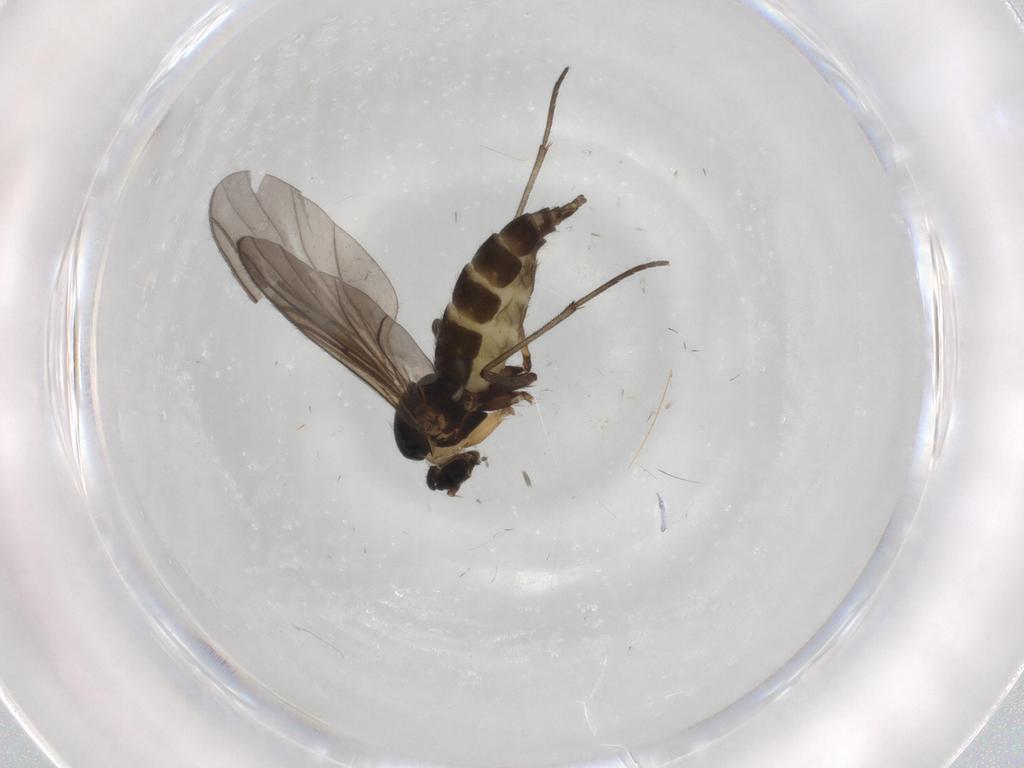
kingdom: Animalia
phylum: Arthropoda
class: Insecta
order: Diptera
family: Sciaridae
